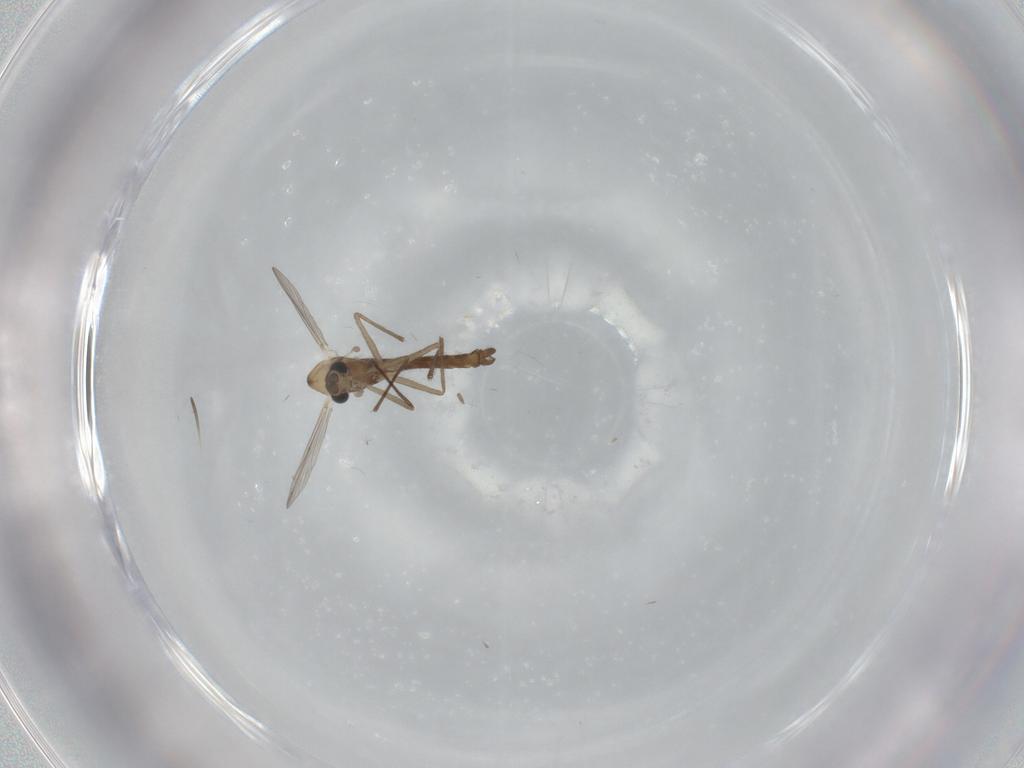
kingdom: Animalia
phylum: Arthropoda
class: Insecta
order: Diptera
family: Chironomidae
